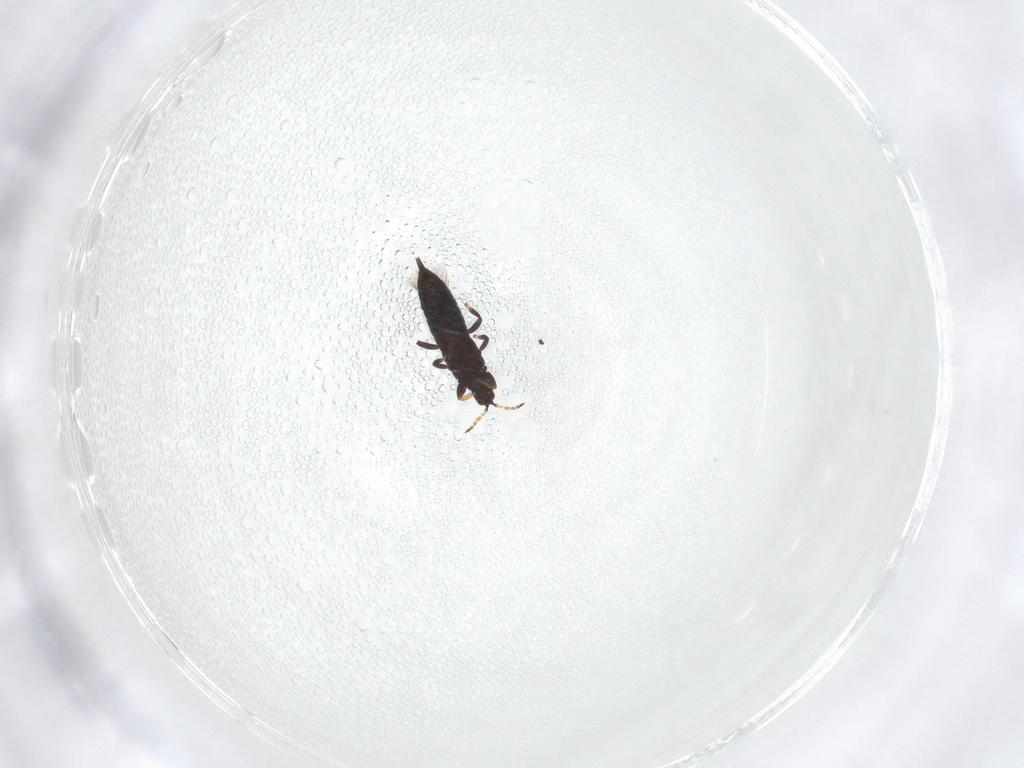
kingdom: Animalia
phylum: Arthropoda
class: Insecta
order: Thysanoptera
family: Phlaeothripidae
